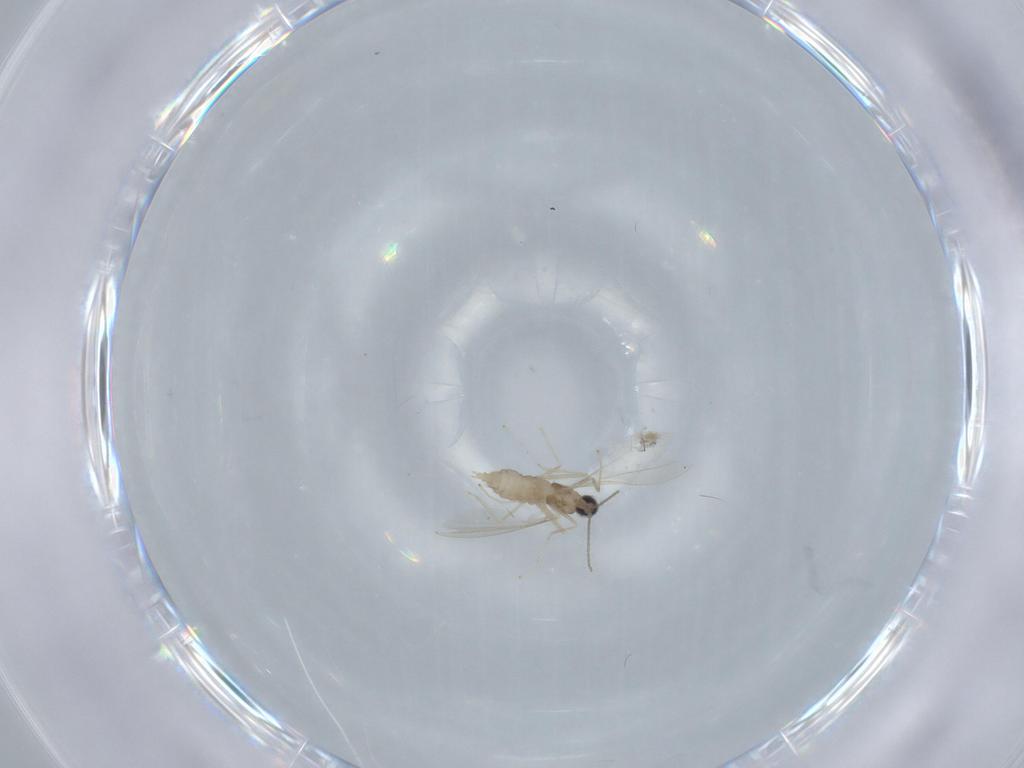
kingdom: Animalia
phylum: Arthropoda
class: Insecta
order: Diptera
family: Cecidomyiidae
